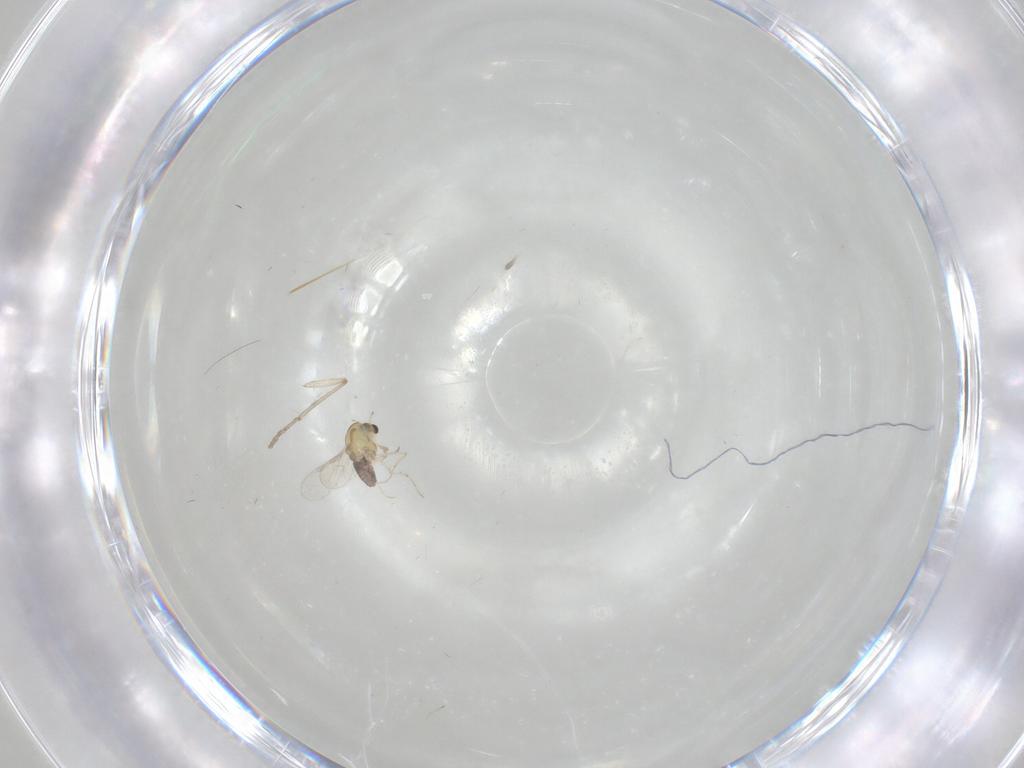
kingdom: Animalia
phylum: Arthropoda
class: Insecta
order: Diptera
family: Chironomidae
